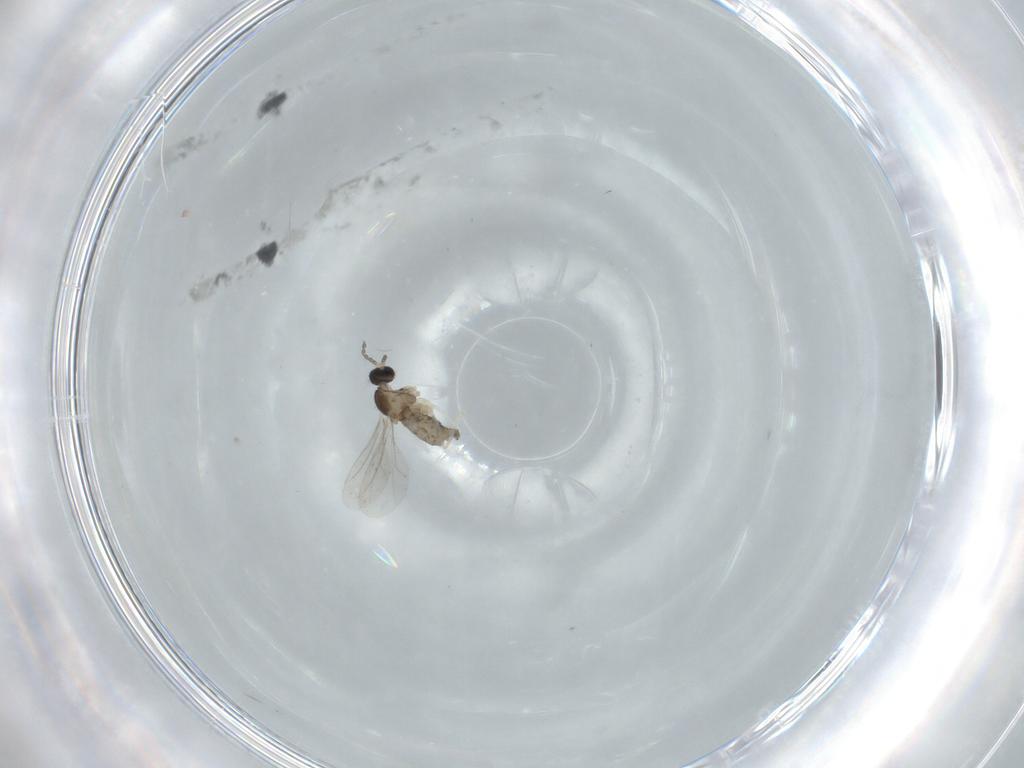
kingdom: Animalia
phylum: Arthropoda
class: Insecta
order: Diptera
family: Phoridae
